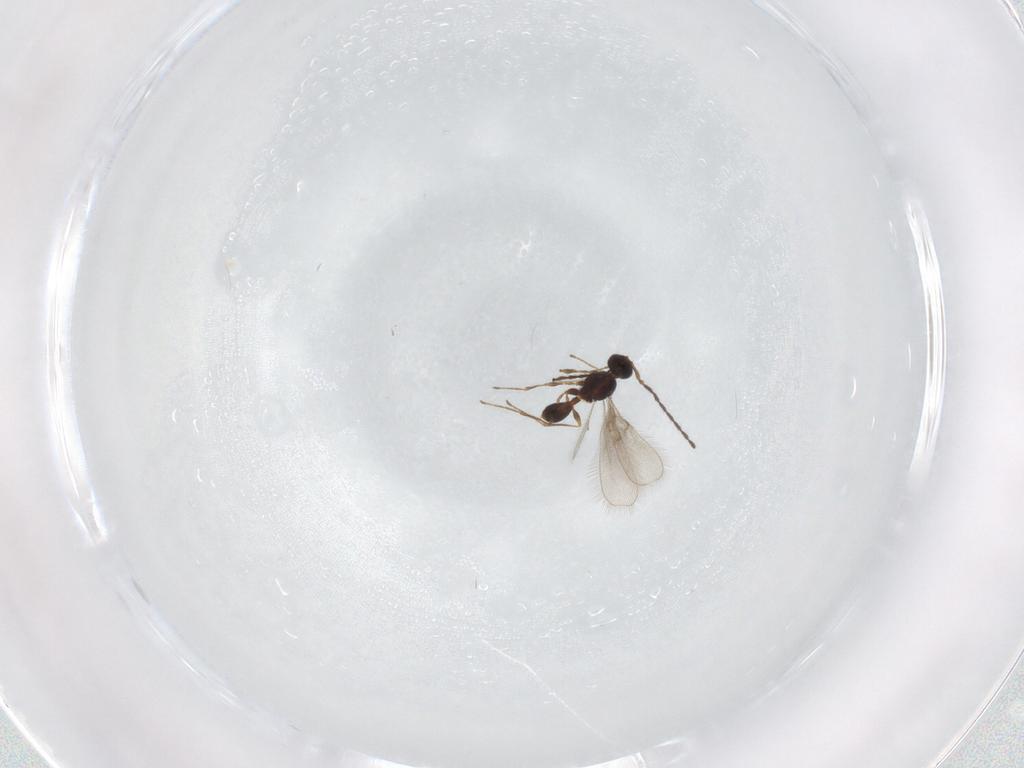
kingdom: Animalia
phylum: Arthropoda
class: Insecta
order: Hymenoptera
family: Diapriidae
